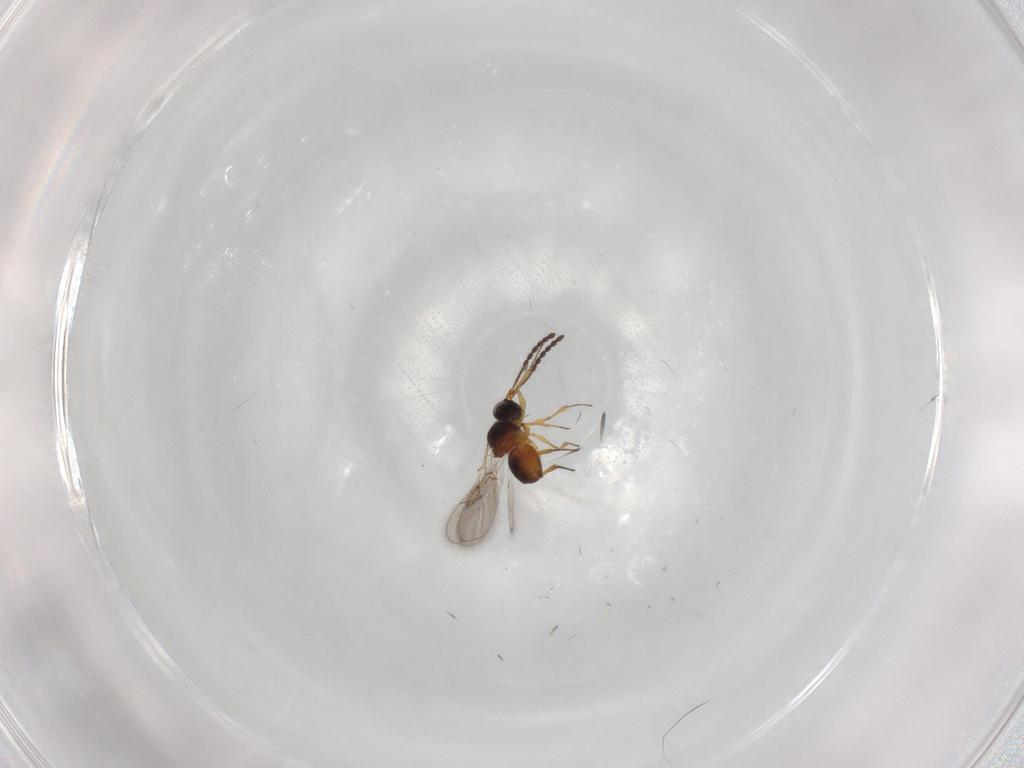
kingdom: Animalia
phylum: Arthropoda
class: Insecta
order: Hymenoptera
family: Figitidae
